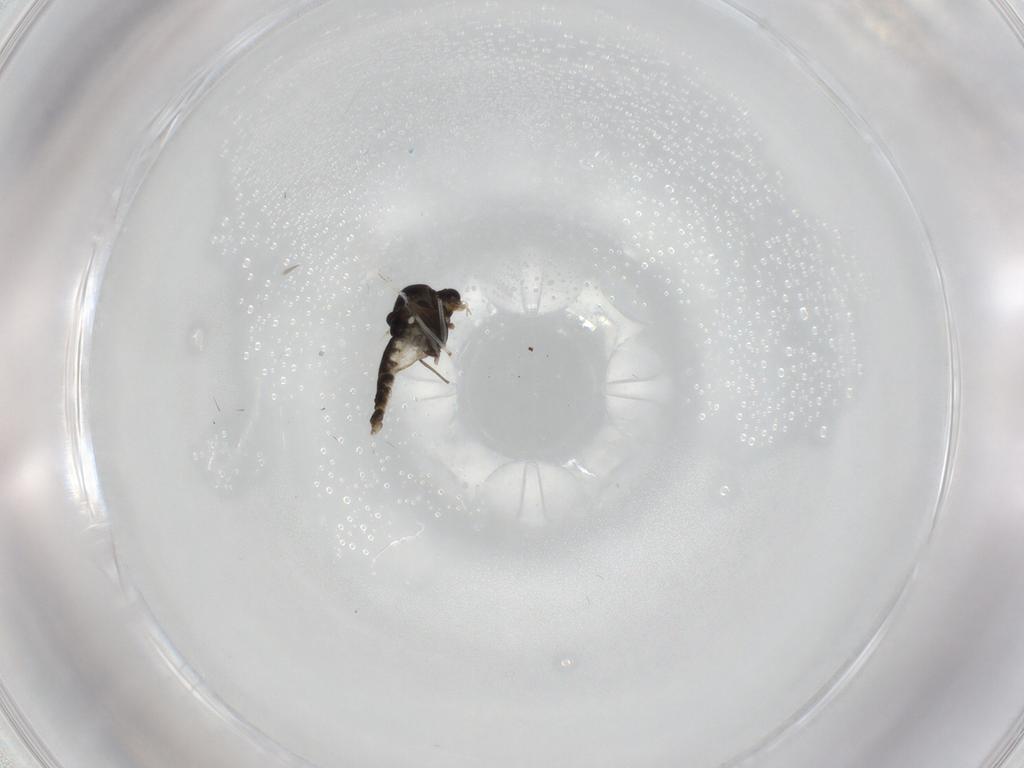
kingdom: Animalia
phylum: Arthropoda
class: Insecta
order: Diptera
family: Chironomidae
